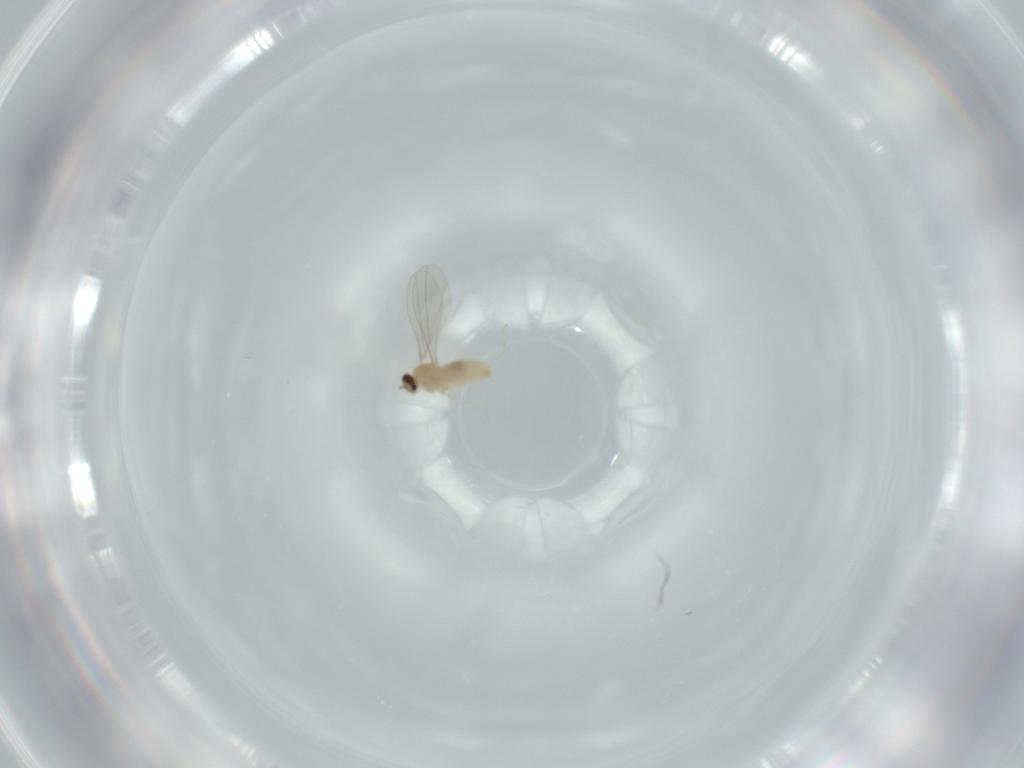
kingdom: Animalia
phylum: Arthropoda
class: Insecta
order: Diptera
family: Cecidomyiidae
